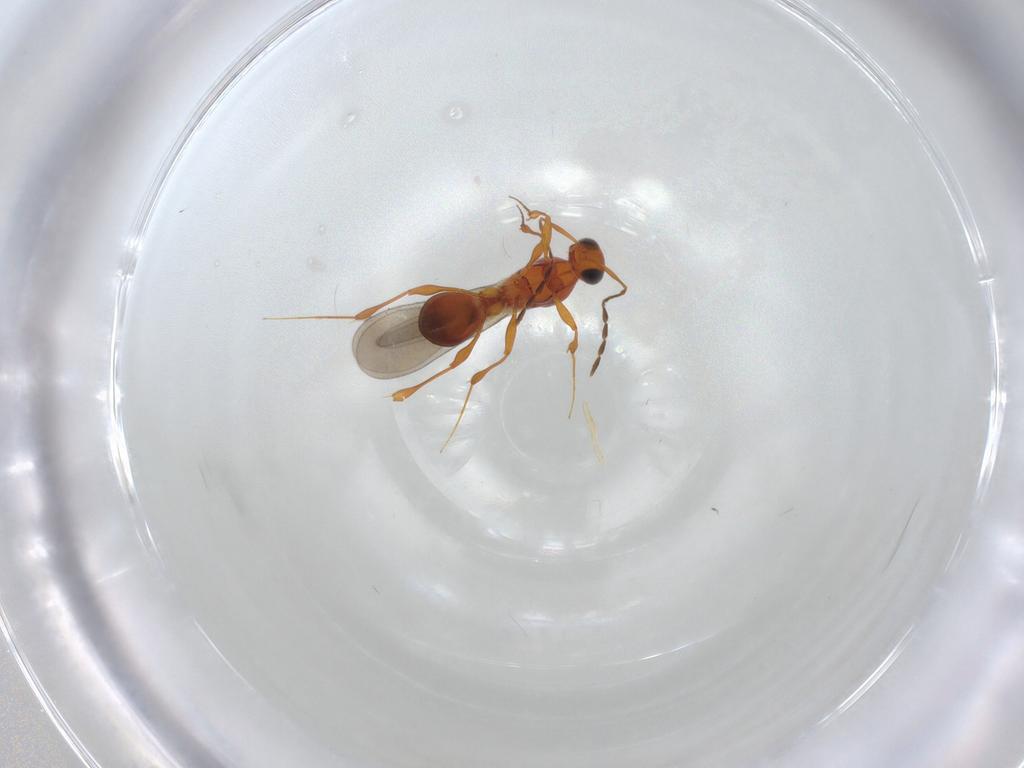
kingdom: Animalia
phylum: Arthropoda
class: Insecta
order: Hymenoptera
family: Platygastridae
